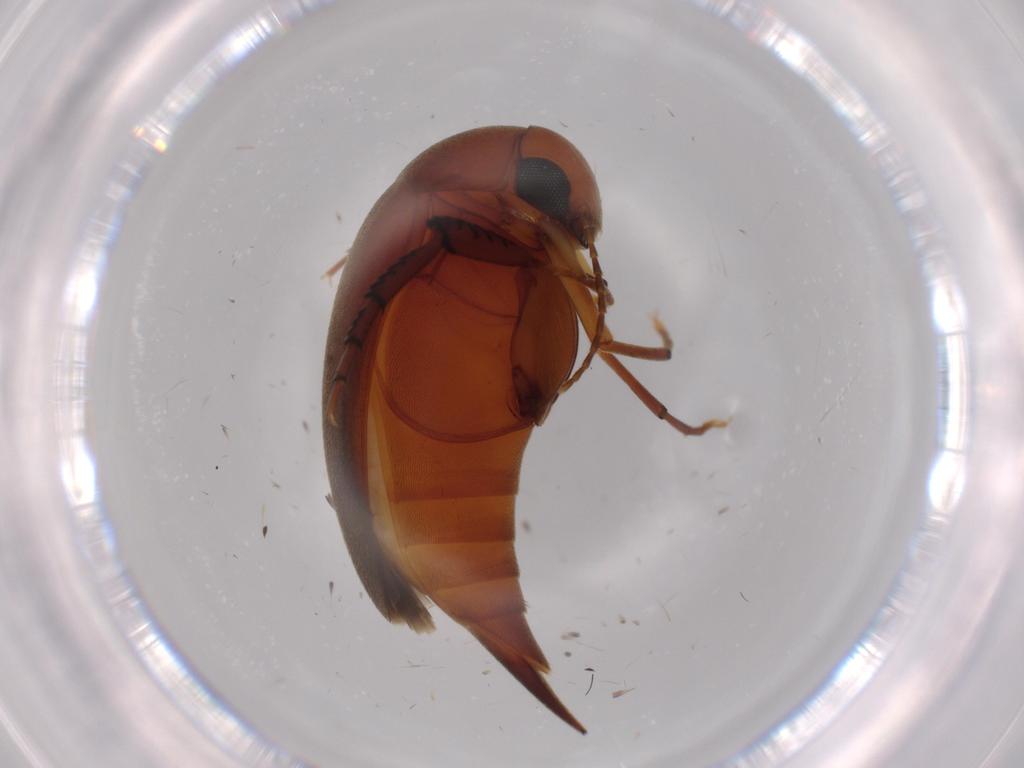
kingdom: Animalia
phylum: Arthropoda
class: Insecta
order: Coleoptera
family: Coccinellidae
